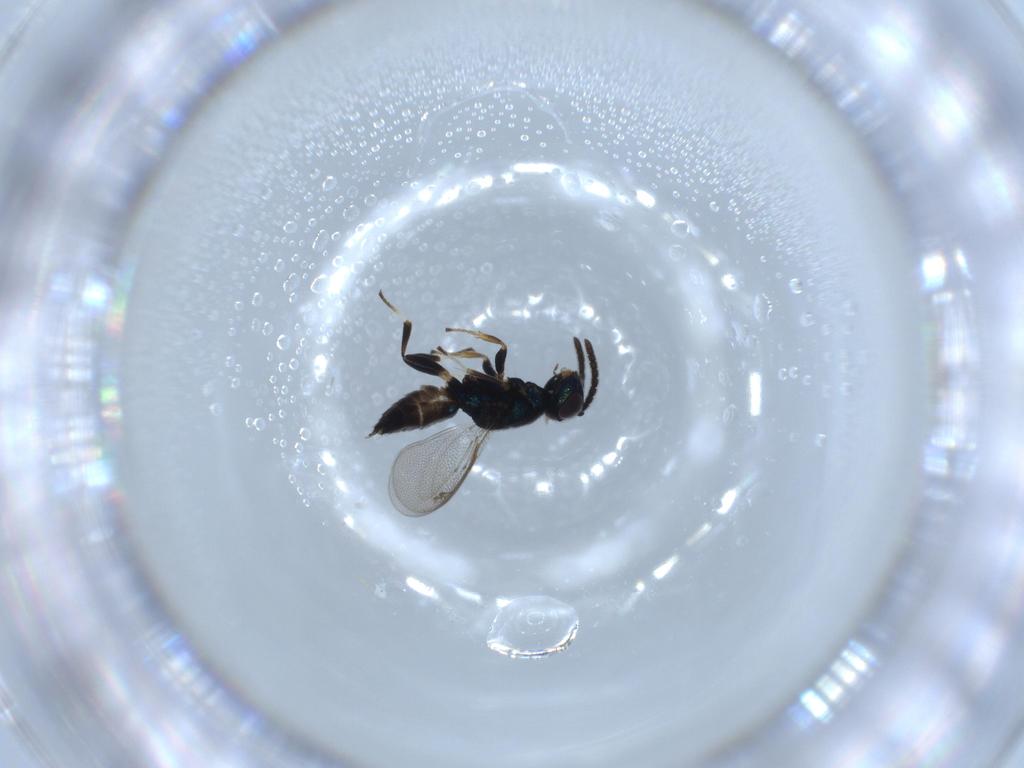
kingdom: Animalia
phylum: Arthropoda
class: Insecta
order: Hymenoptera
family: Eupelmidae
